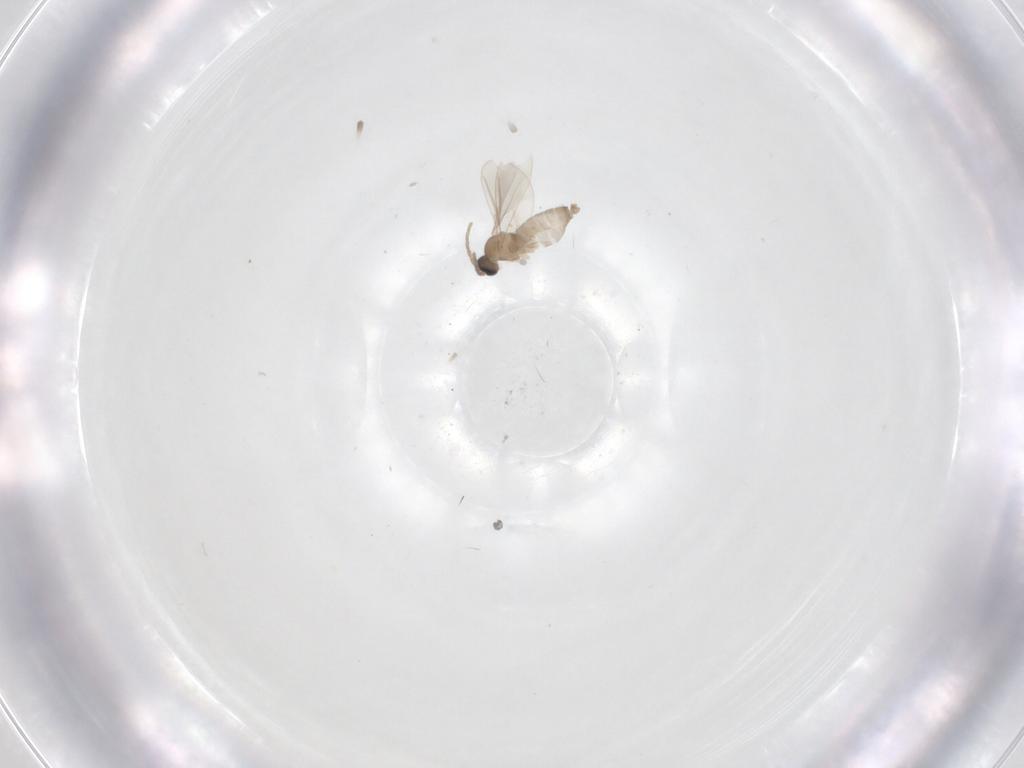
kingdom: Animalia
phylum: Arthropoda
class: Insecta
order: Diptera
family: Cecidomyiidae
